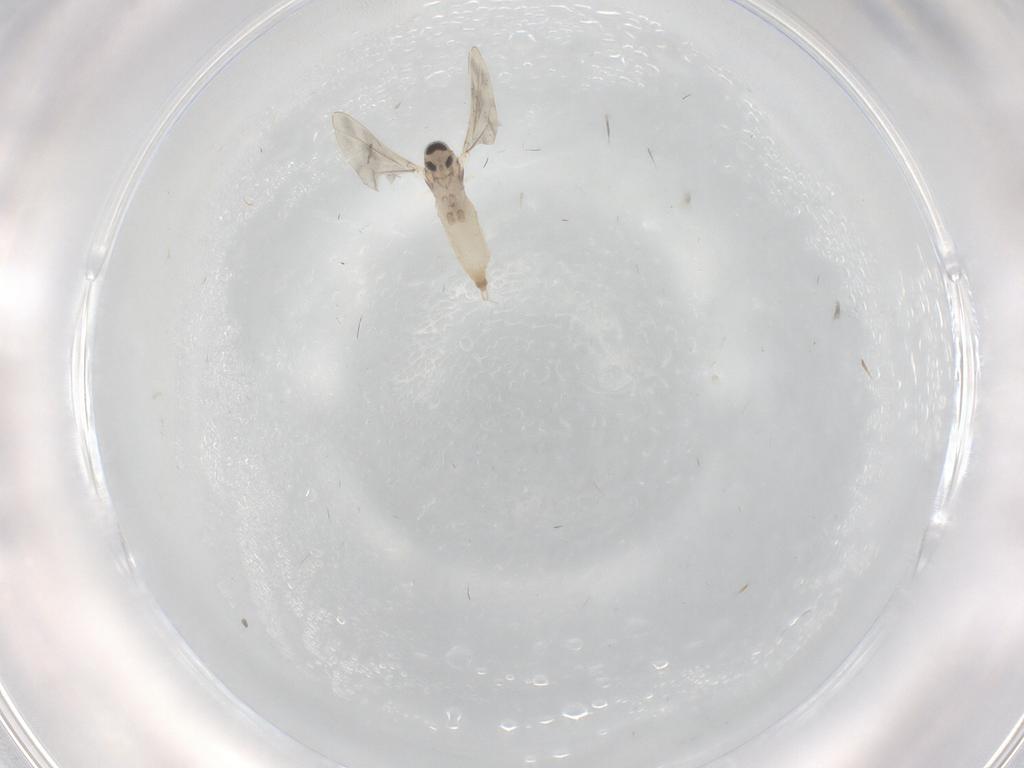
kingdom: Animalia
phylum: Arthropoda
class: Insecta
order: Diptera
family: Cecidomyiidae
